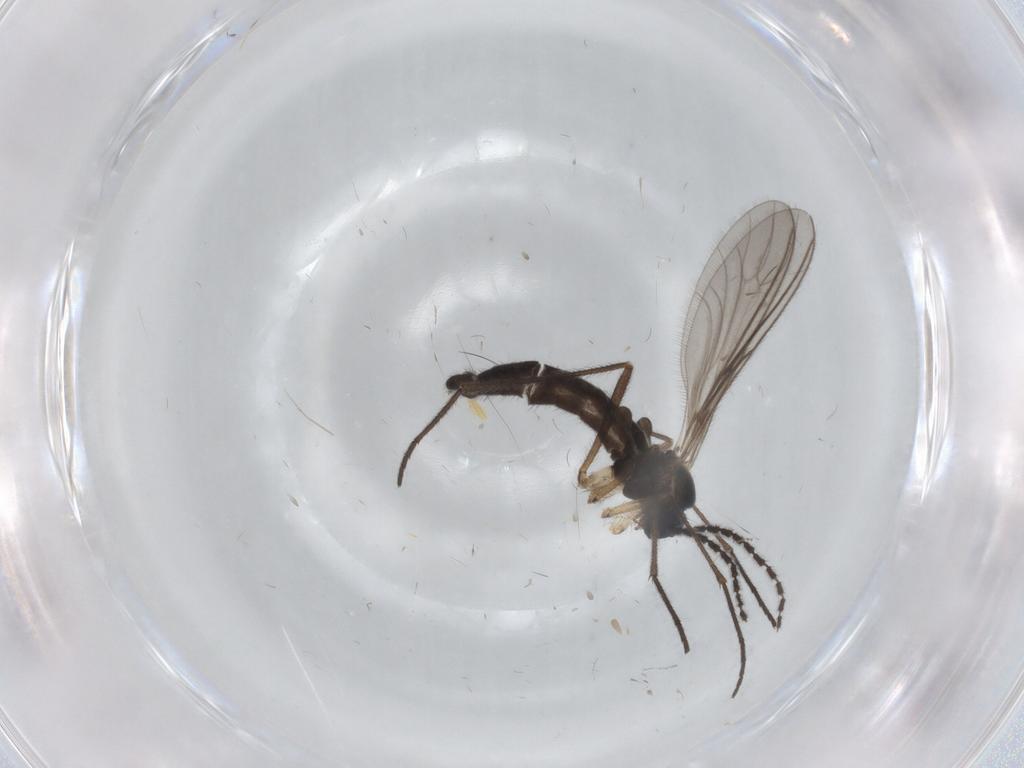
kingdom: Animalia
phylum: Arthropoda
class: Insecta
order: Diptera
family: Sciaridae
